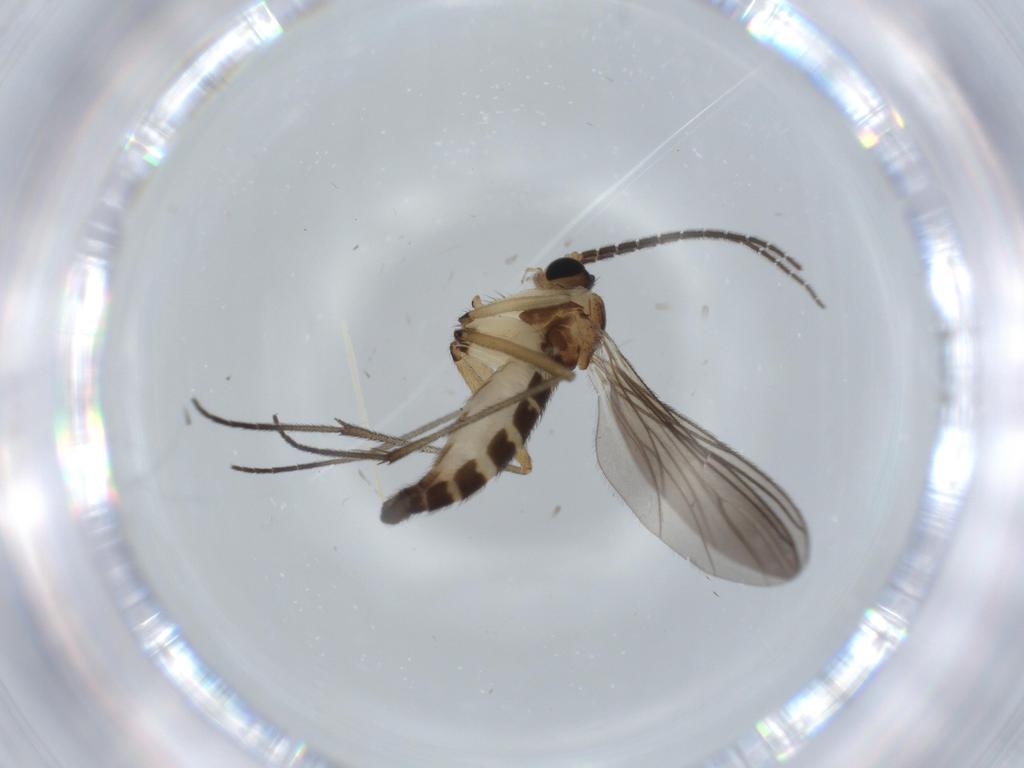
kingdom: Animalia
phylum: Arthropoda
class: Insecta
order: Diptera
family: Sciaridae
